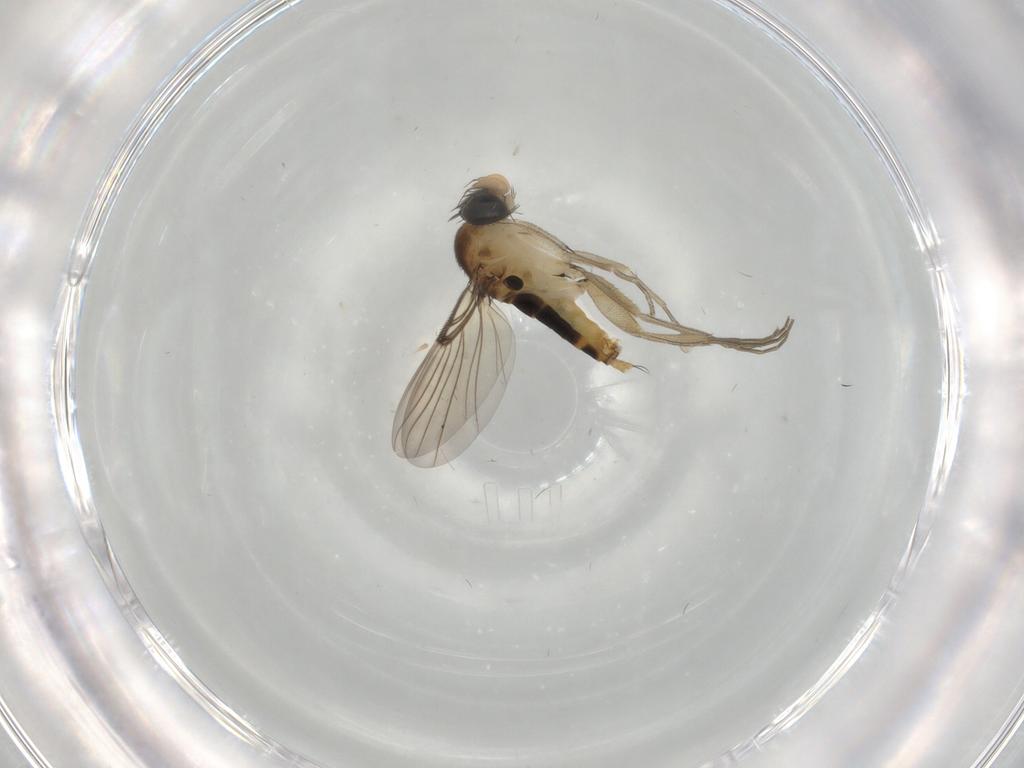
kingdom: Animalia
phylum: Arthropoda
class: Insecta
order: Diptera
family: Phoridae
